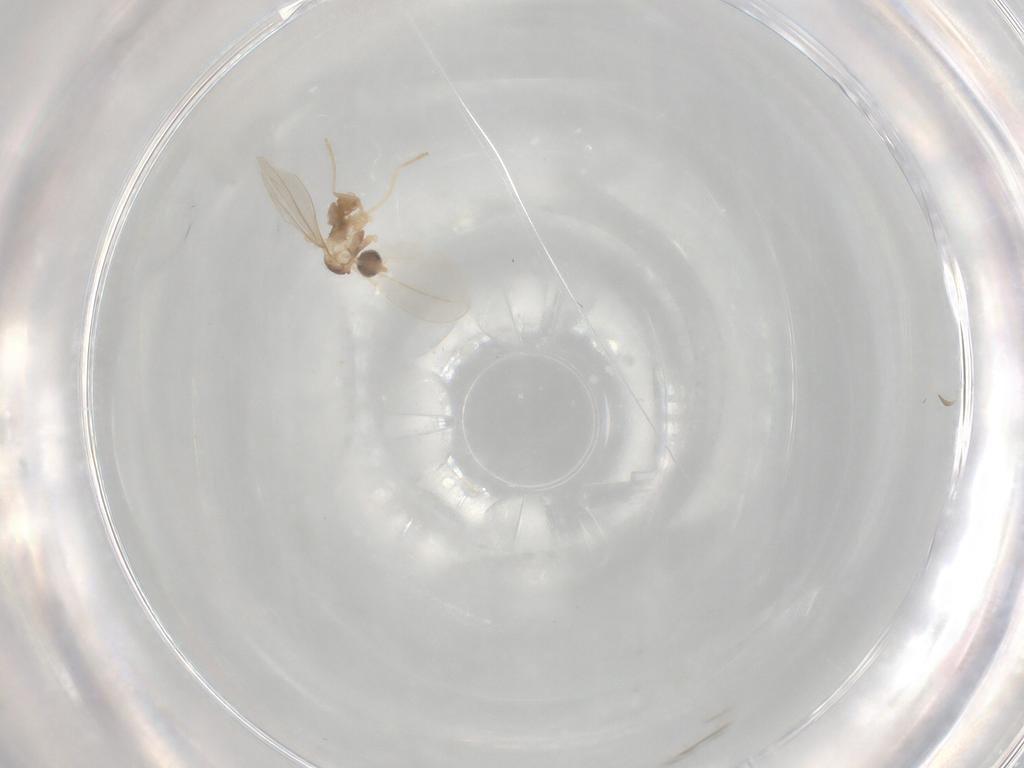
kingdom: Animalia
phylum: Arthropoda
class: Insecta
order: Diptera
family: Cecidomyiidae
